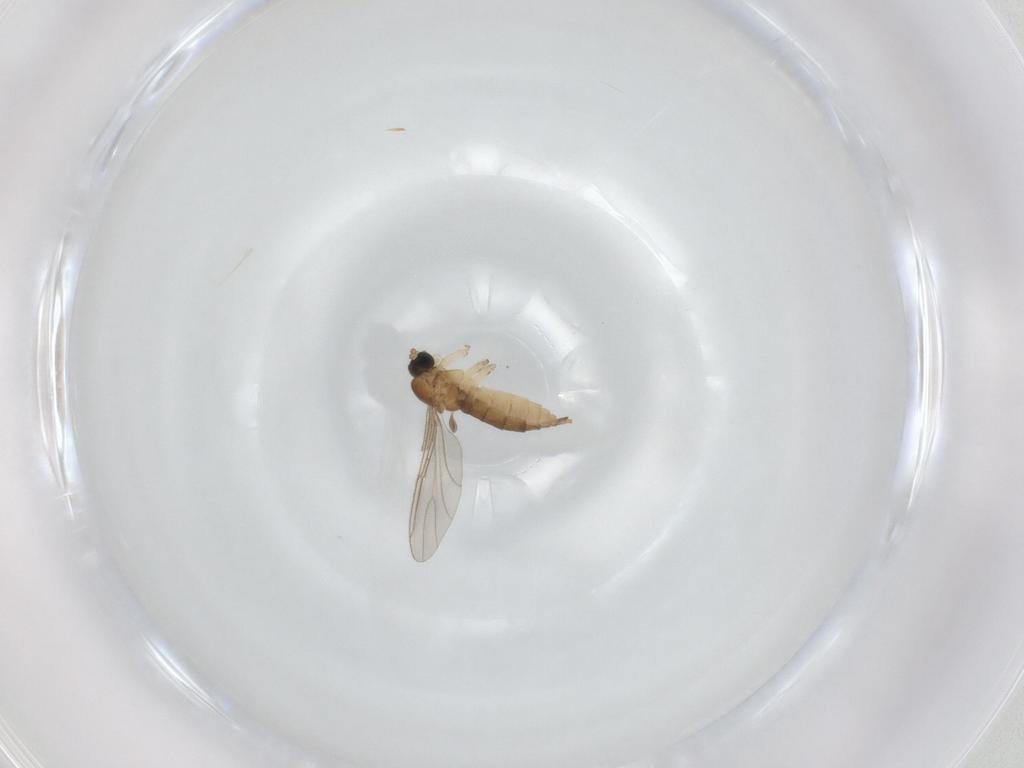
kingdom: Animalia
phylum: Arthropoda
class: Insecta
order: Diptera
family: Sciaridae
